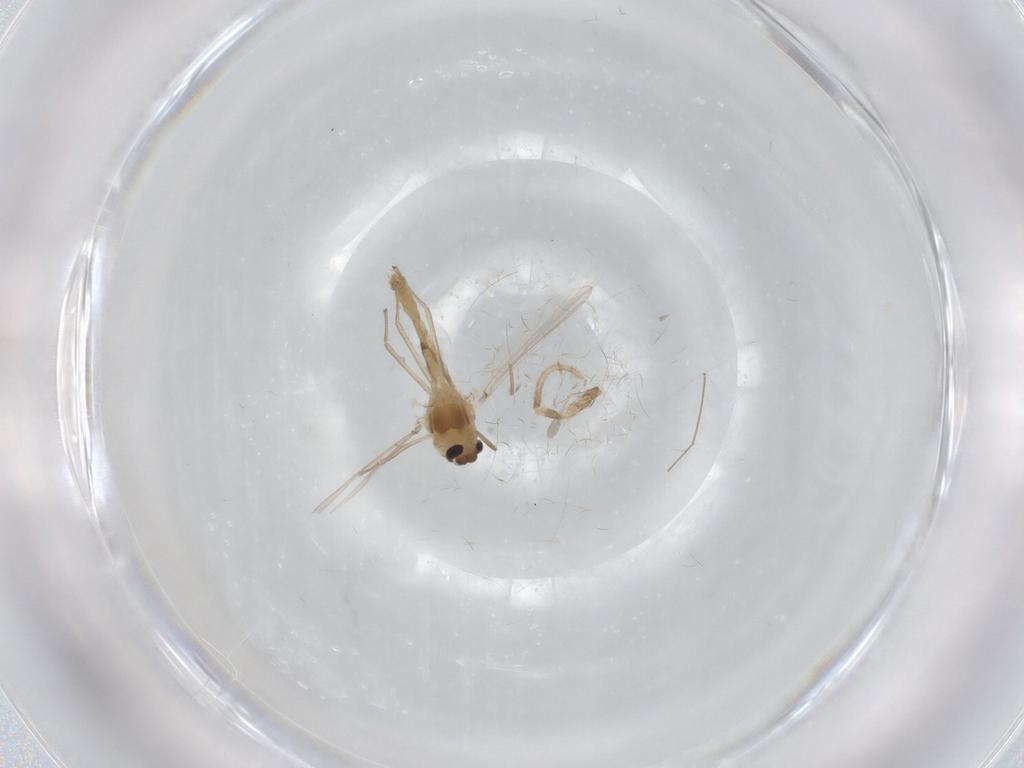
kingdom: Animalia
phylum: Arthropoda
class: Insecta
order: Diptera
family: Chironomidae
